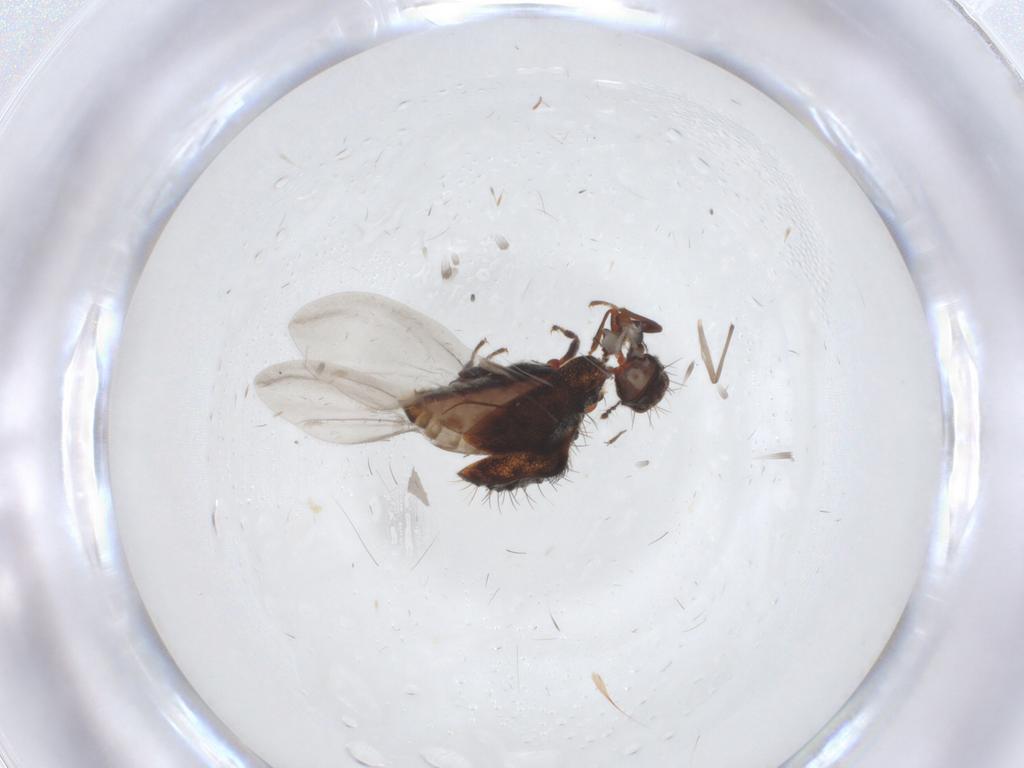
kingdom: Animalia
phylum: Arthropoda
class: Insecta
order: Coleoptera
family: Latridiidae
